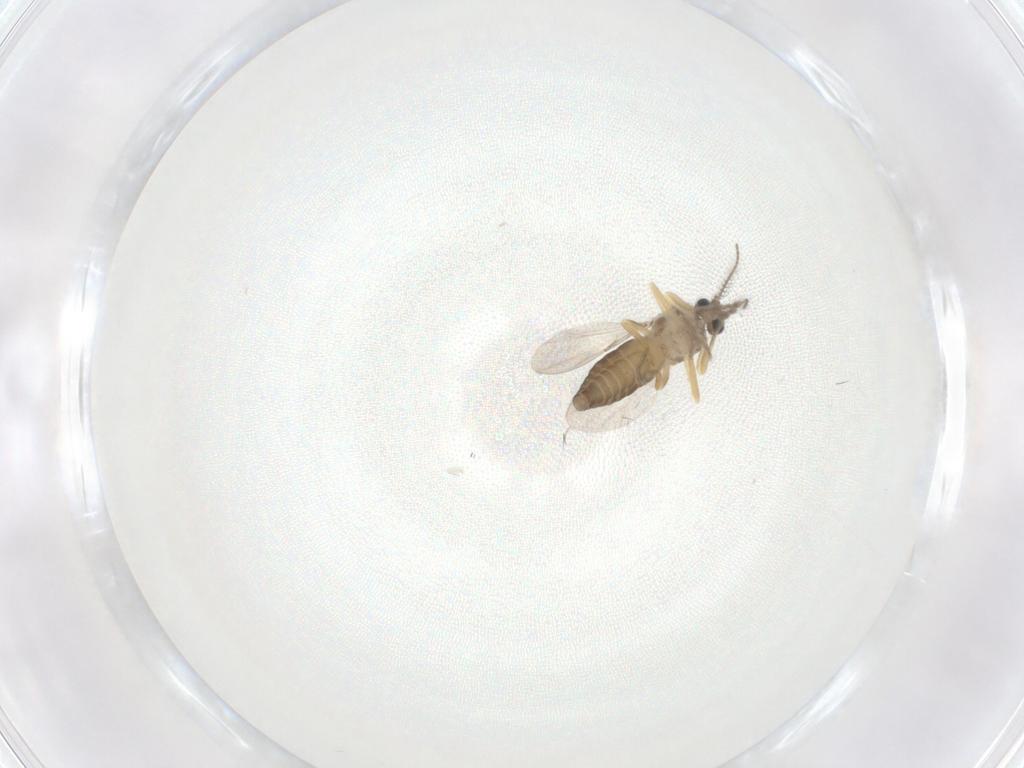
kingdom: Animalia
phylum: Arthropoda
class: Insecta
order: Diptera
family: Ceratopogonidae
